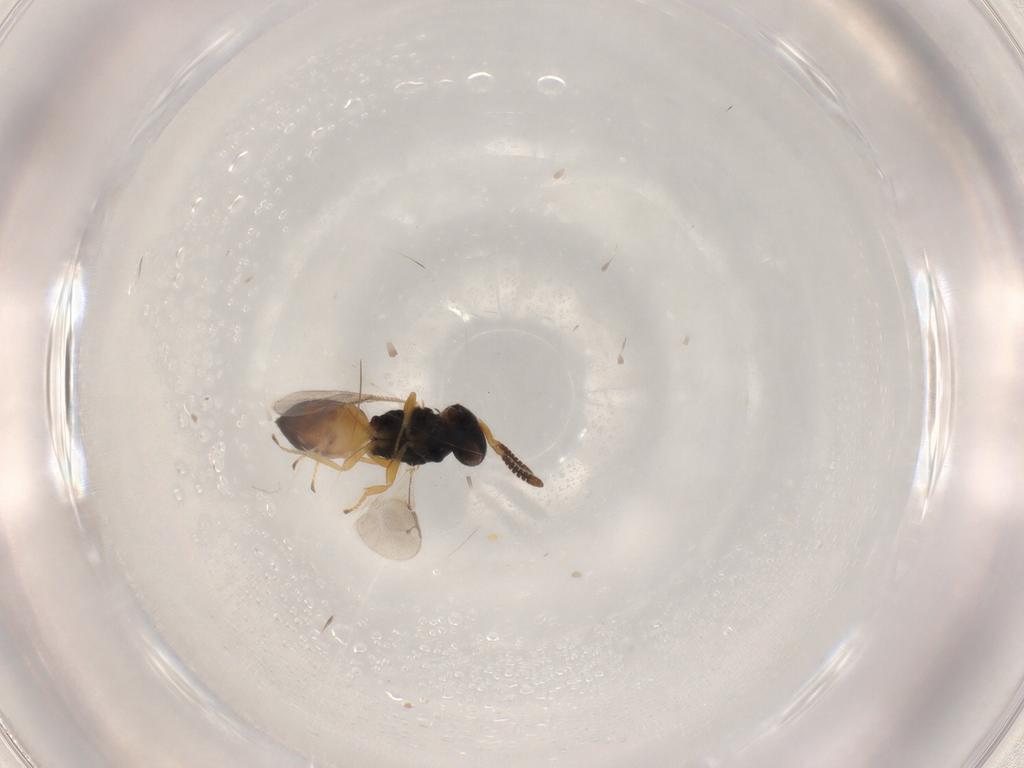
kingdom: Animalia
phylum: Arthropoda
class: Insecta
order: Hymenoptera
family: Pteromalidae
